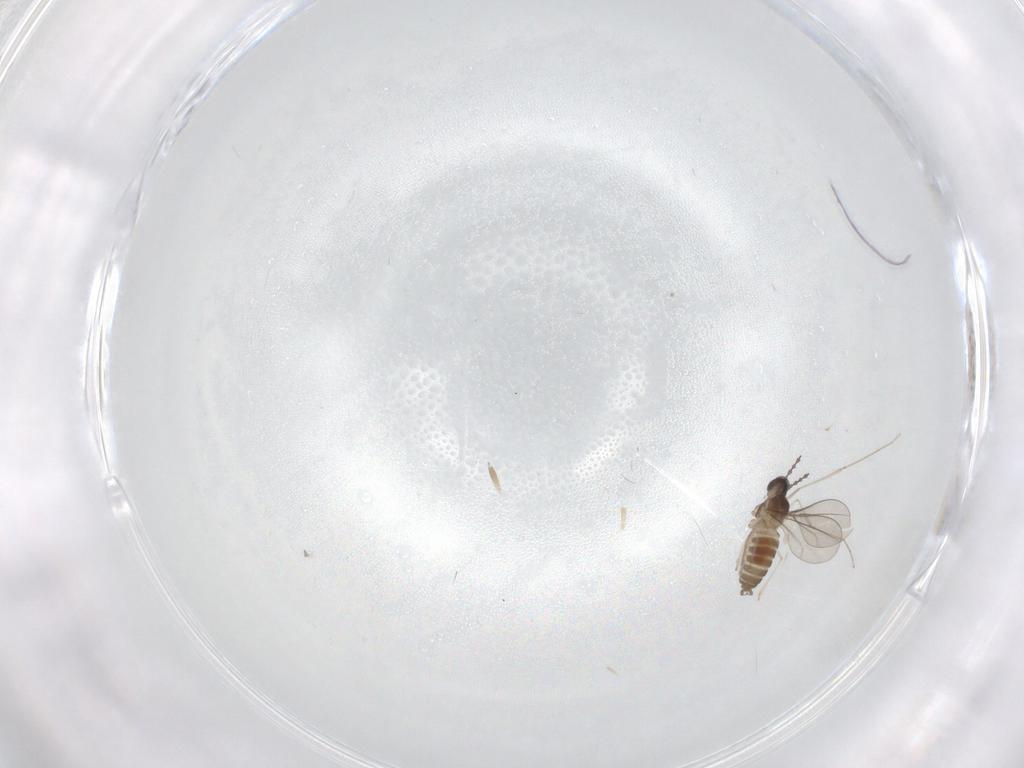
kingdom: Animalia
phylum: Arthropoda
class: Insecta
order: Diptera
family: Cecidomyiidae
